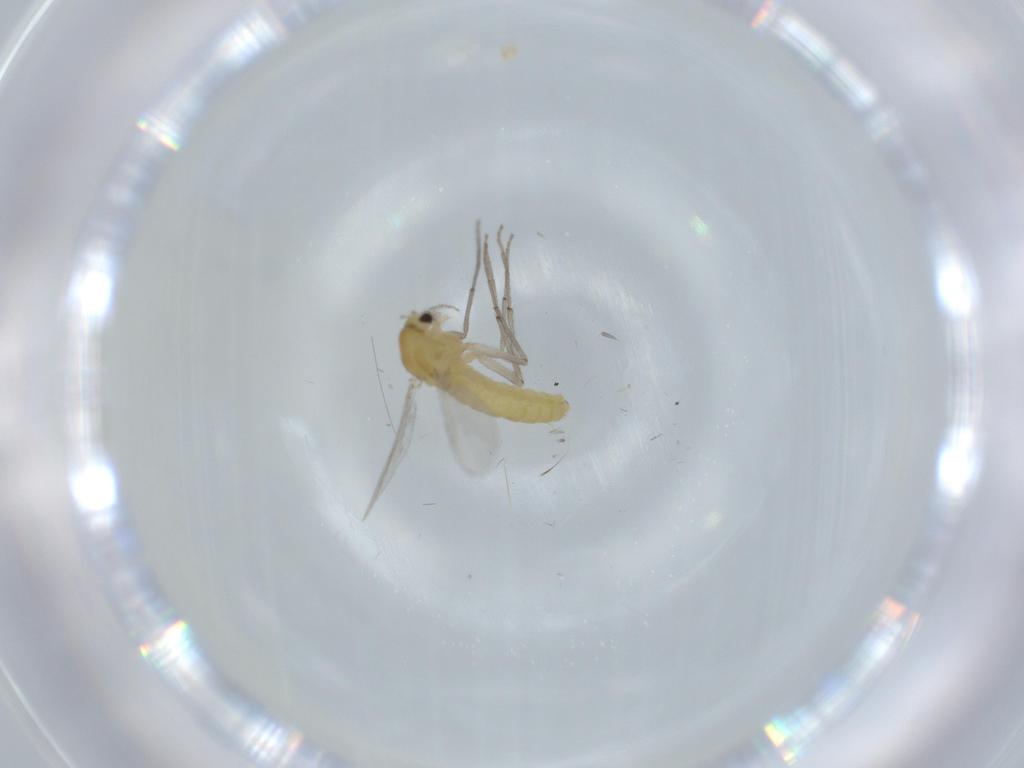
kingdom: Animalia
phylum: Arthropoda
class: Insecta
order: Diptera
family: Chironomidae
